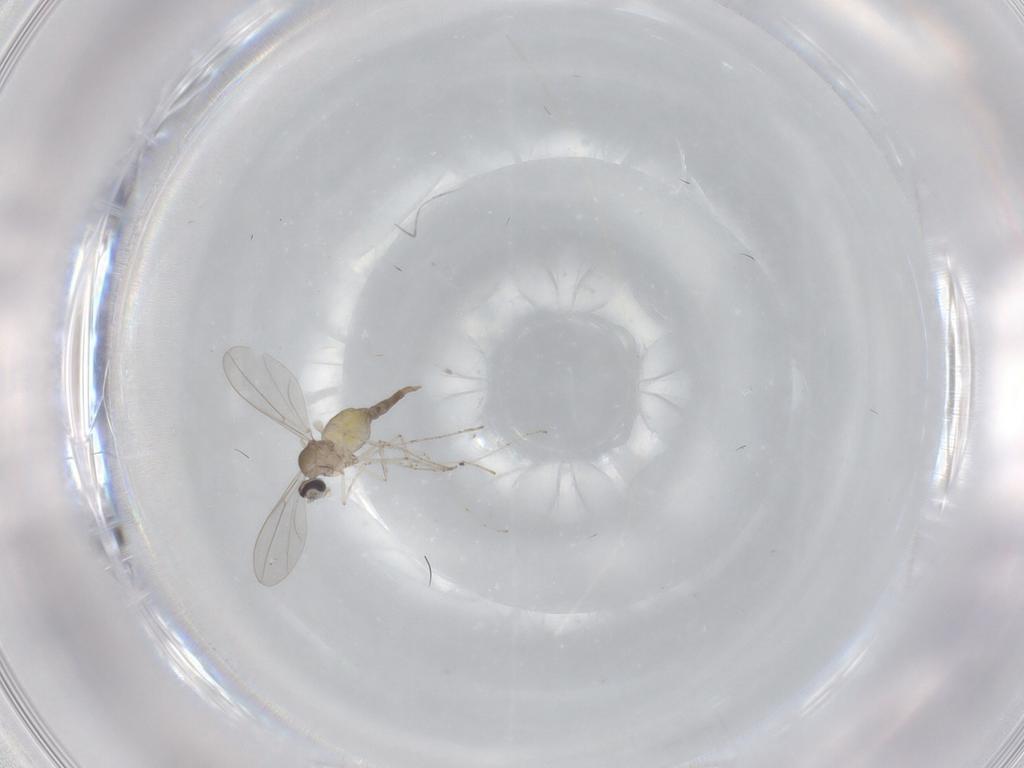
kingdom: Animalia
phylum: Arthropoda
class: Insecta
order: Diptera
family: Cecidomyiidae
